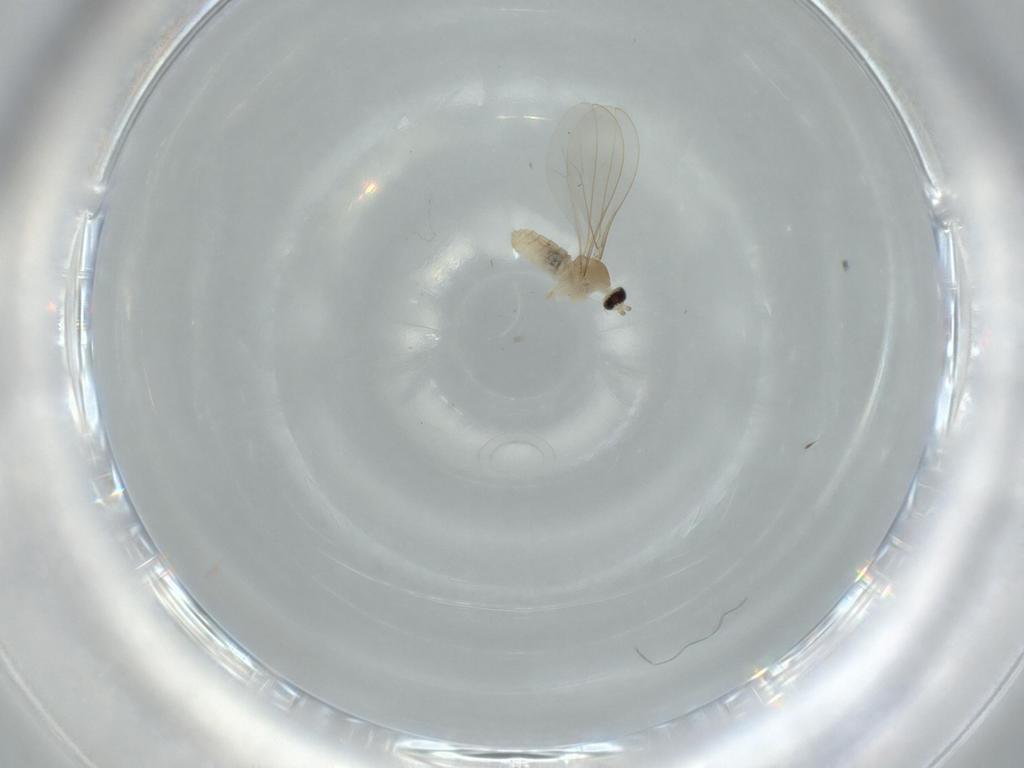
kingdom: Animalia
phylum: Arthropoda
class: Insecta
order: Diptera
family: Cecidomyiidae
